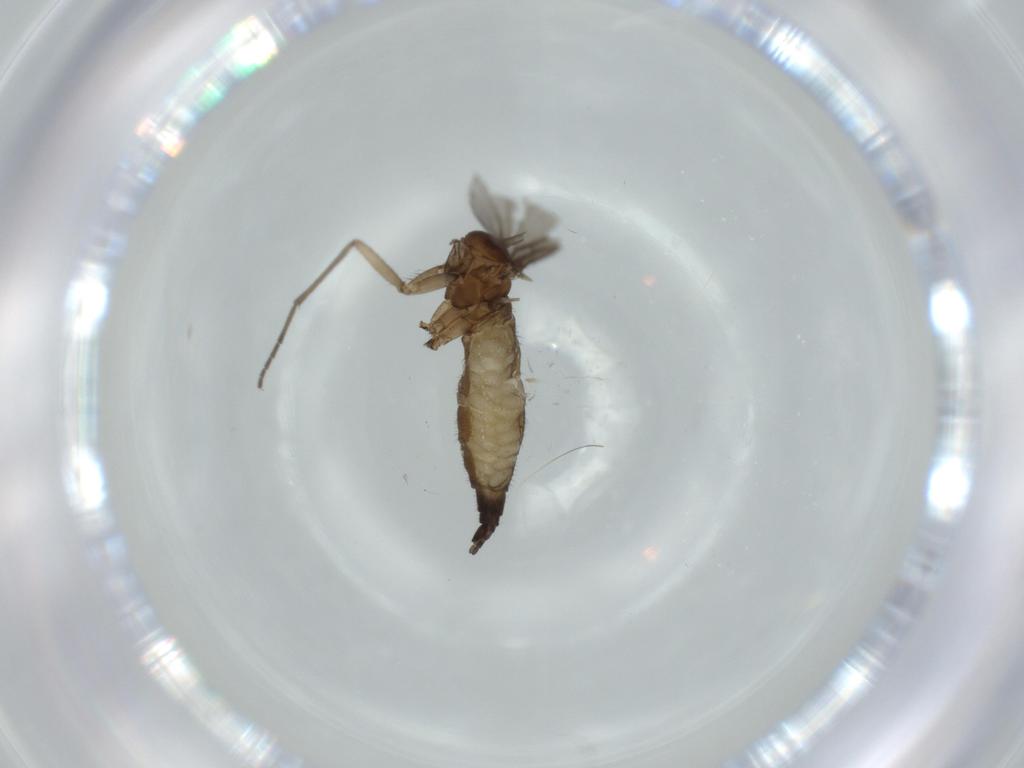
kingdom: Animalia
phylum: Arthropoda
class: Insecta
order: Diptera
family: Sciaridae
